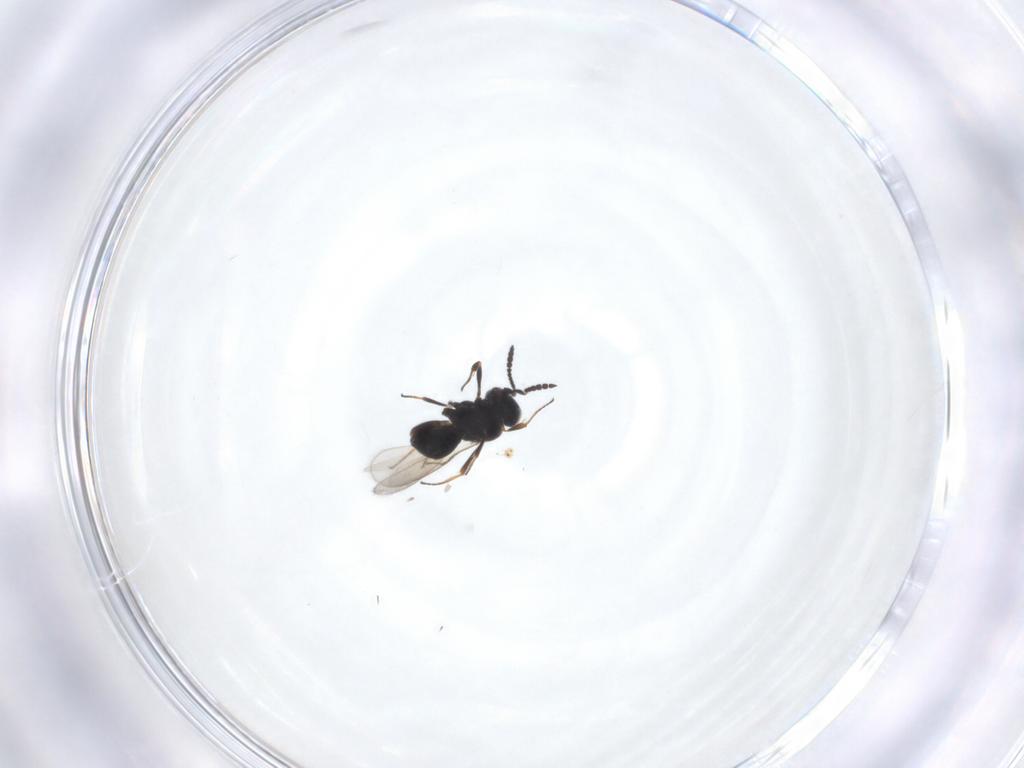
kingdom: Animalia
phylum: Arthropoda
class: Insecta
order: Hymenoptera
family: Scelionidae
